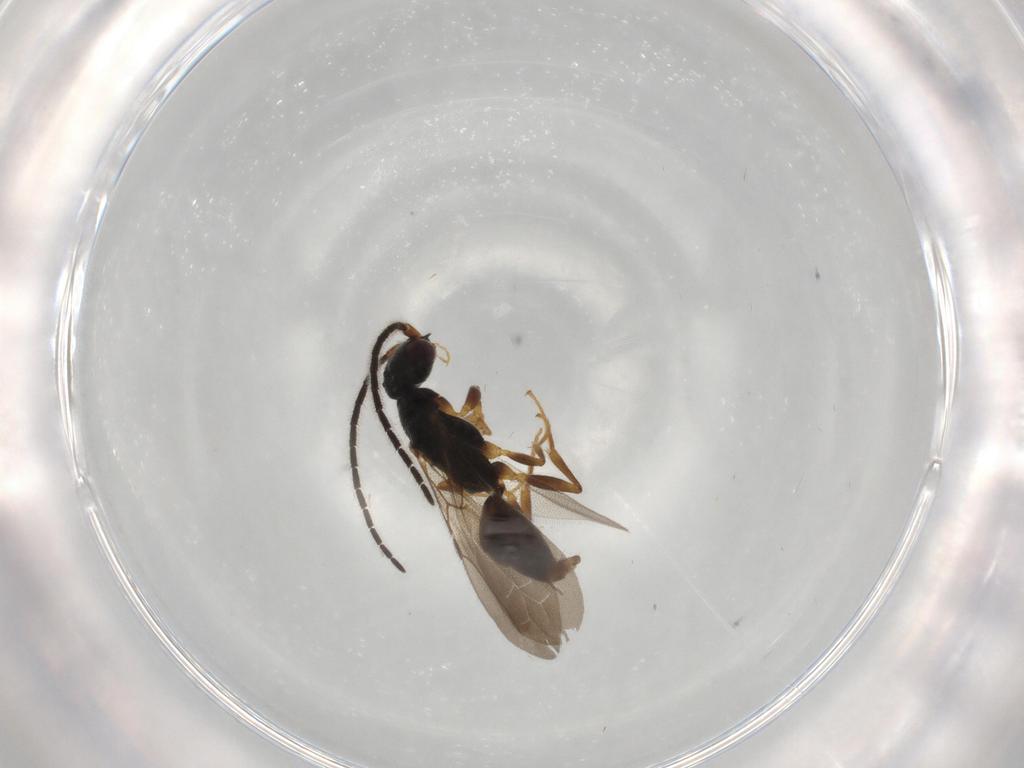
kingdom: Animalia
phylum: Arthropoda
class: Insecta
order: Hymenoptera
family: Bethylidae
